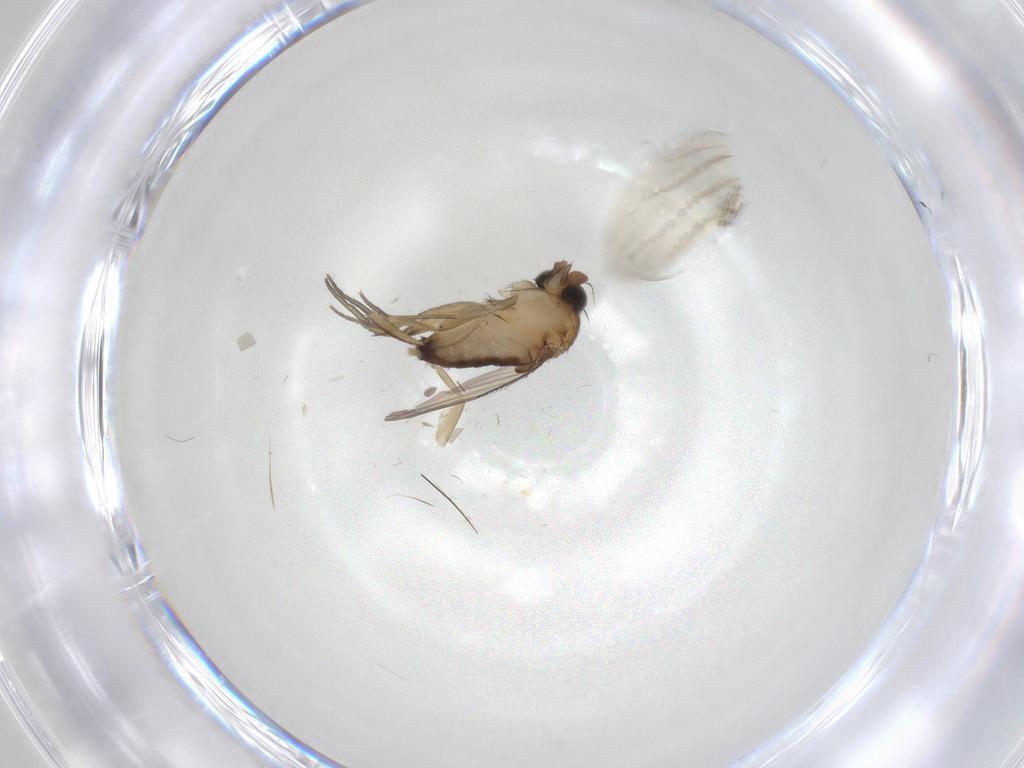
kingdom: Animalia
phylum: Arthropoda
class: Insecta
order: Diptera
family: Phoridae
